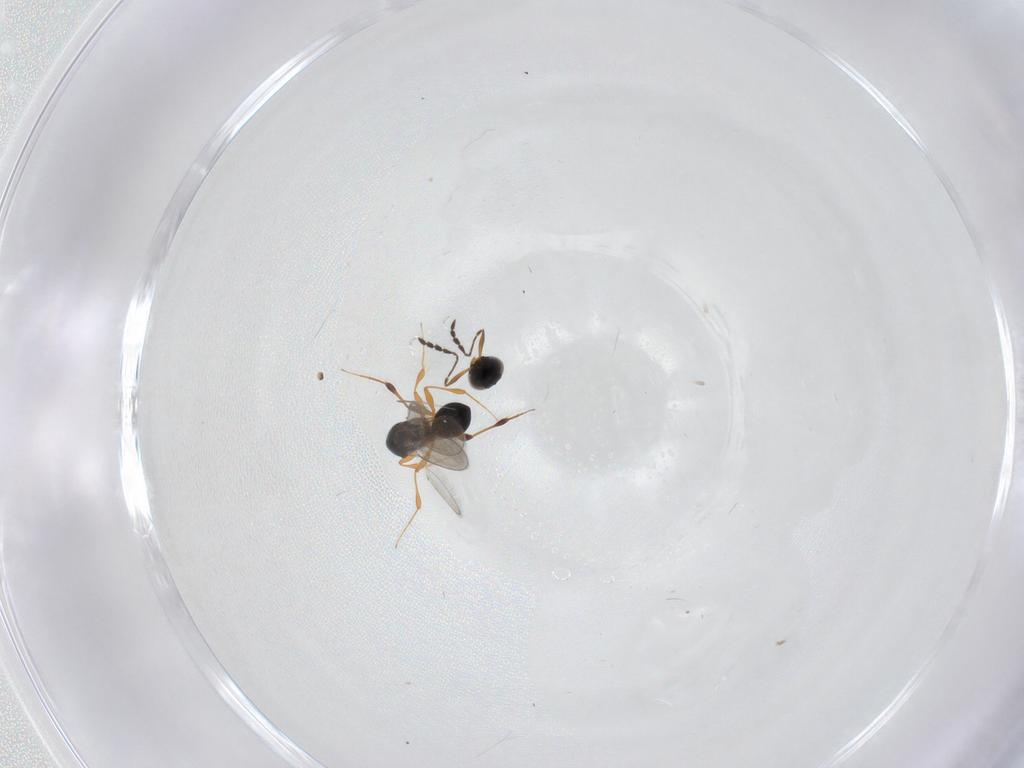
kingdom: Animalia
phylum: Arthropoda
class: Insecta
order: Hymenoptera
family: Platygastridae
